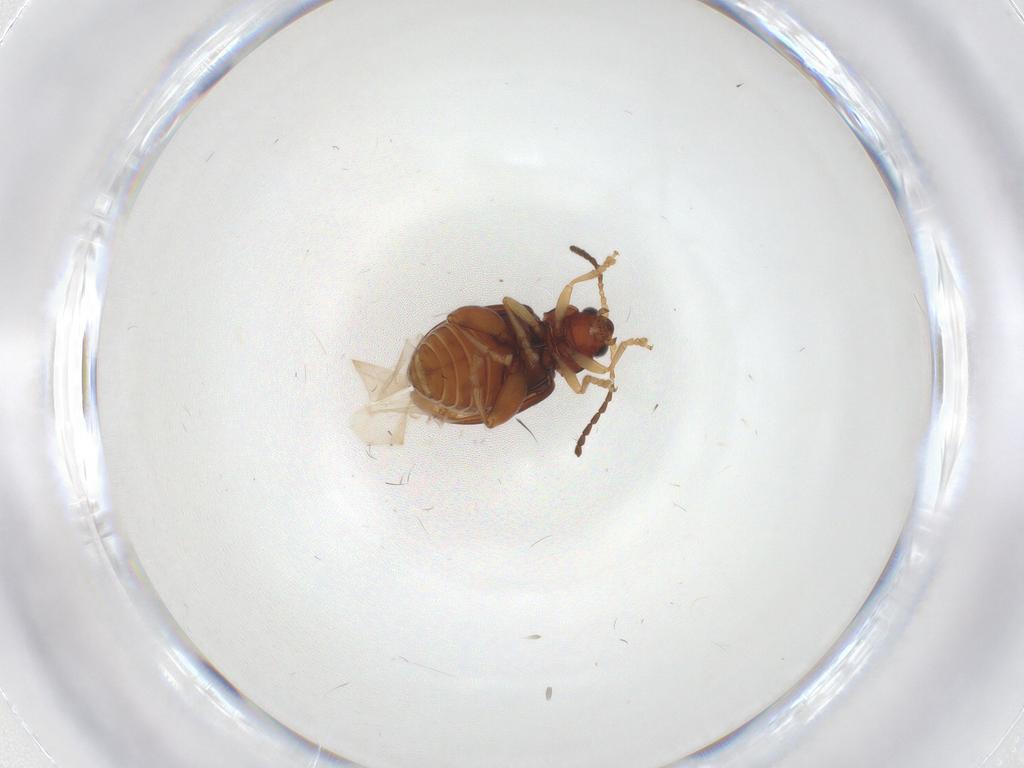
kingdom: Animalia
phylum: Arthropoda
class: Insecta
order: Coleoptera
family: Chrysomelidae
